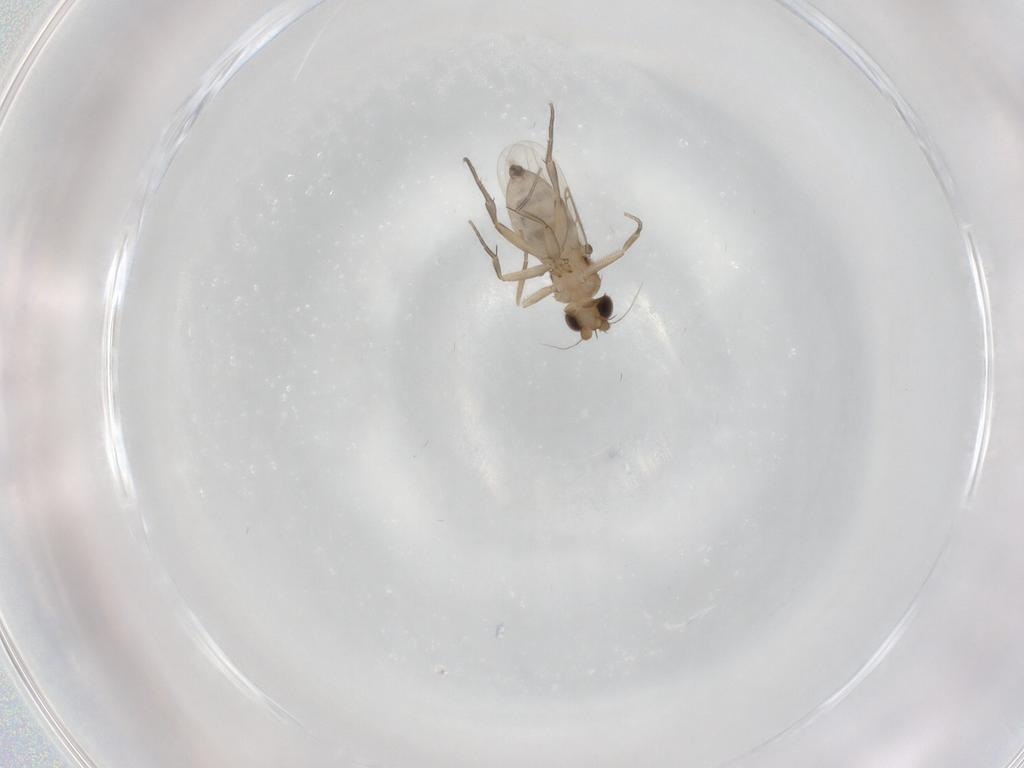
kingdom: Animalia
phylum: Arthropoda
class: Insecta
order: Diptera
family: Phoridae
